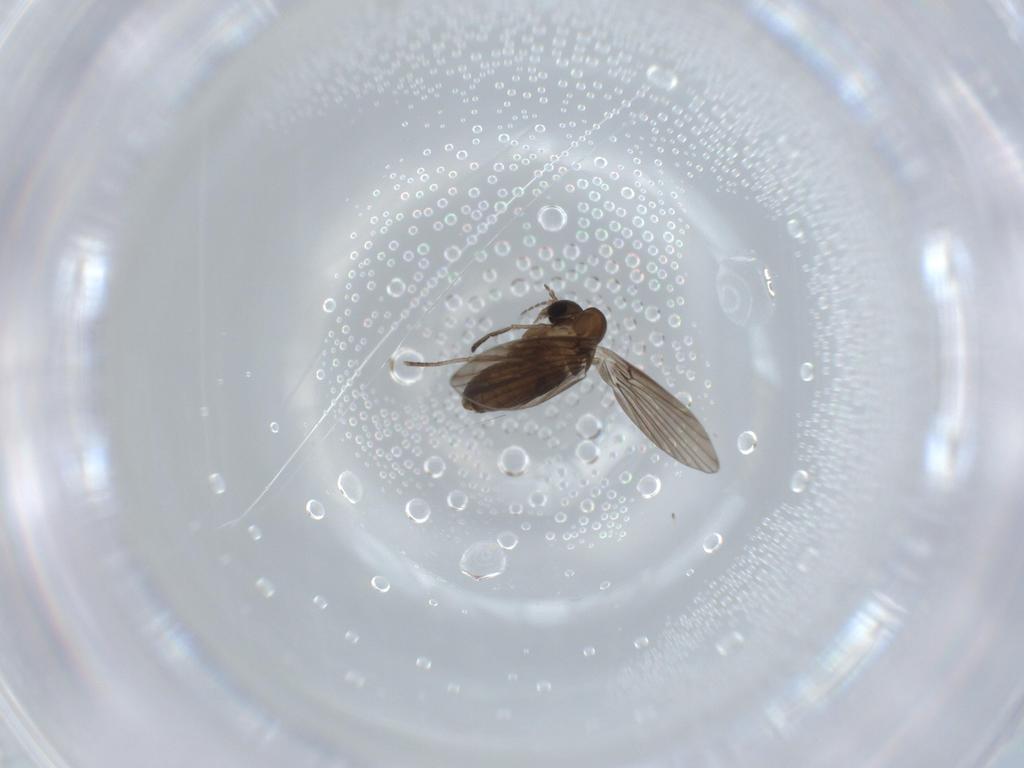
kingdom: Animalia
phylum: Arthropoda
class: Insecta
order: Diptera
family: Psychodidae
